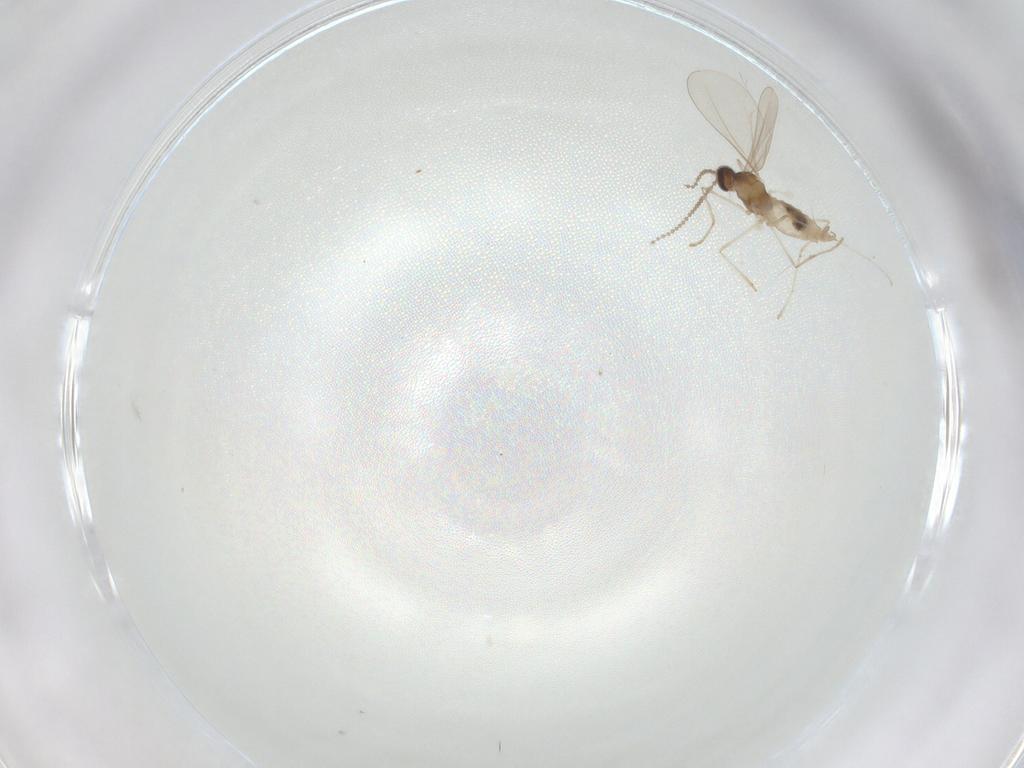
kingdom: Animalia
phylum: Arthropoda
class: Insecta
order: Diptera
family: Cecidomyiidae
